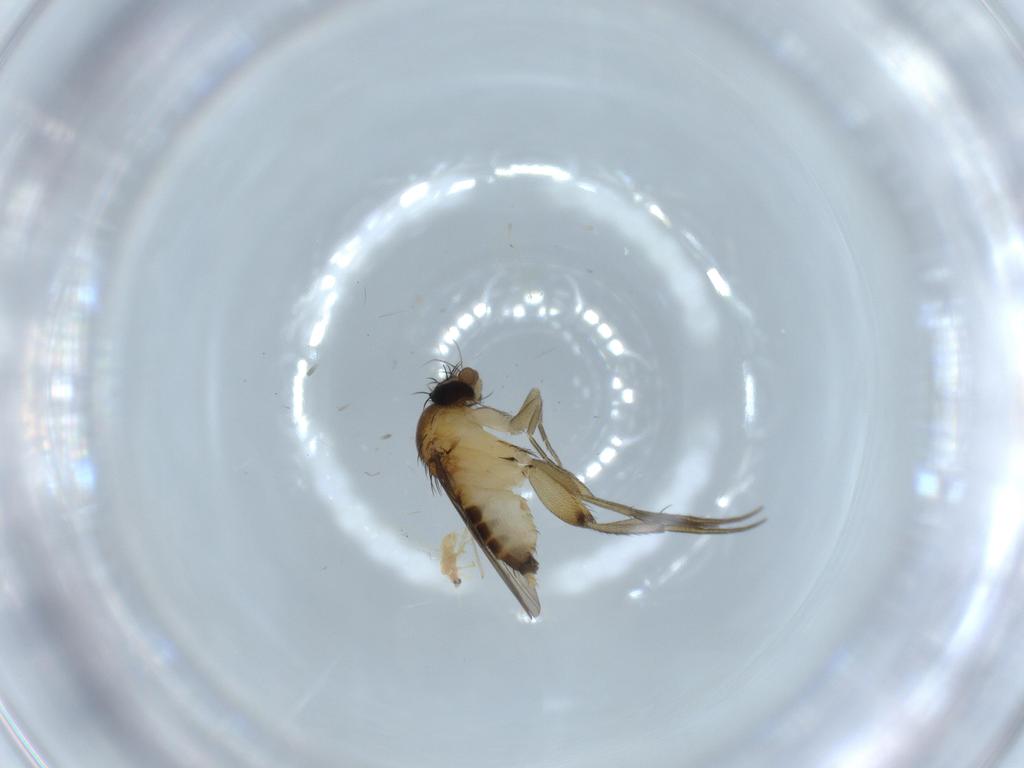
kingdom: Animalia
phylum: Arthropoda
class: Insecta
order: Diptera
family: Phoridae
